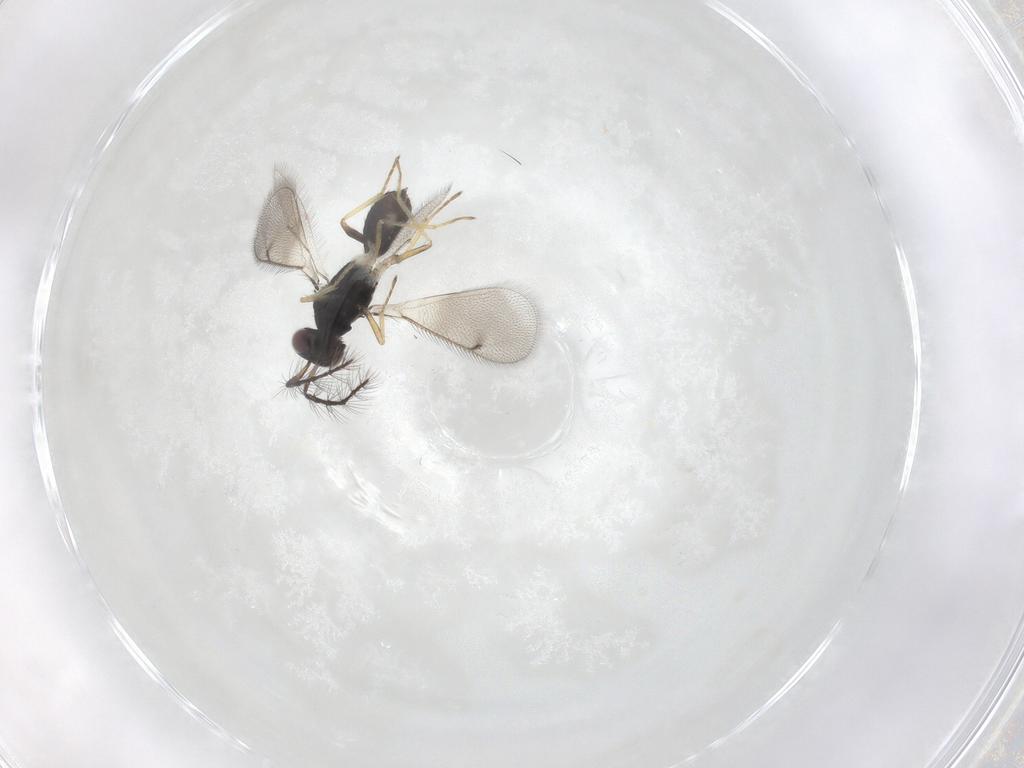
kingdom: Animalia
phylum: Arthropoda
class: Insecta
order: Hymenoptera
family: Eulophidae
